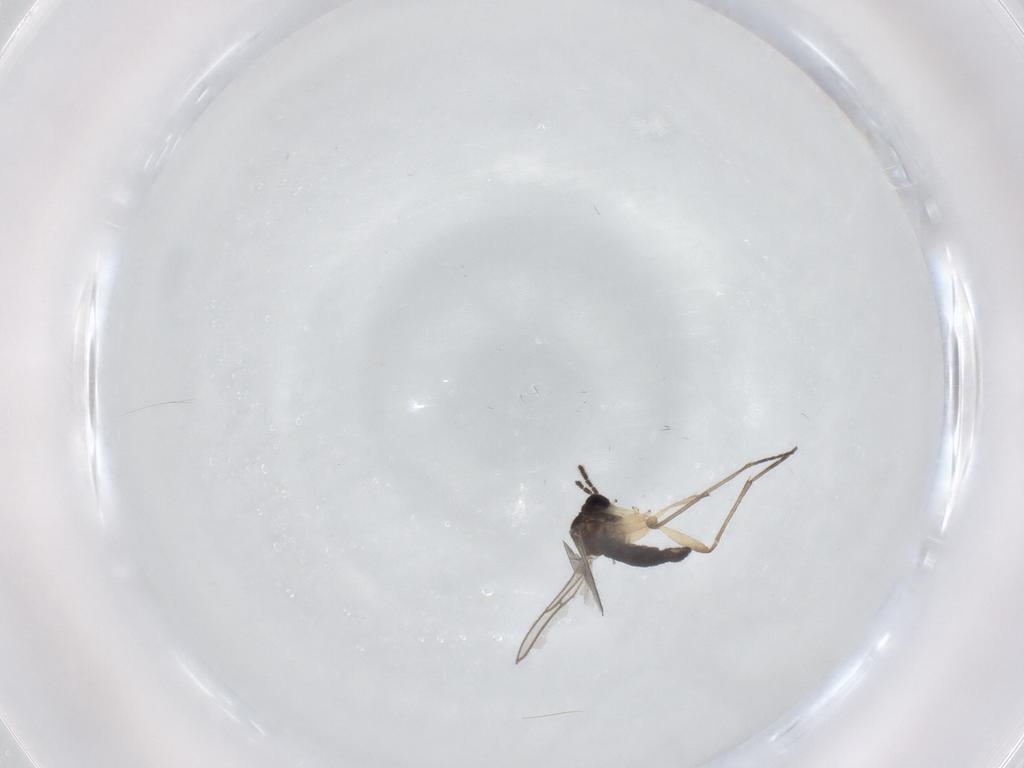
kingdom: Animalia
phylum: Arthropoda
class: Insecta
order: Diptera
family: Sciaridae
